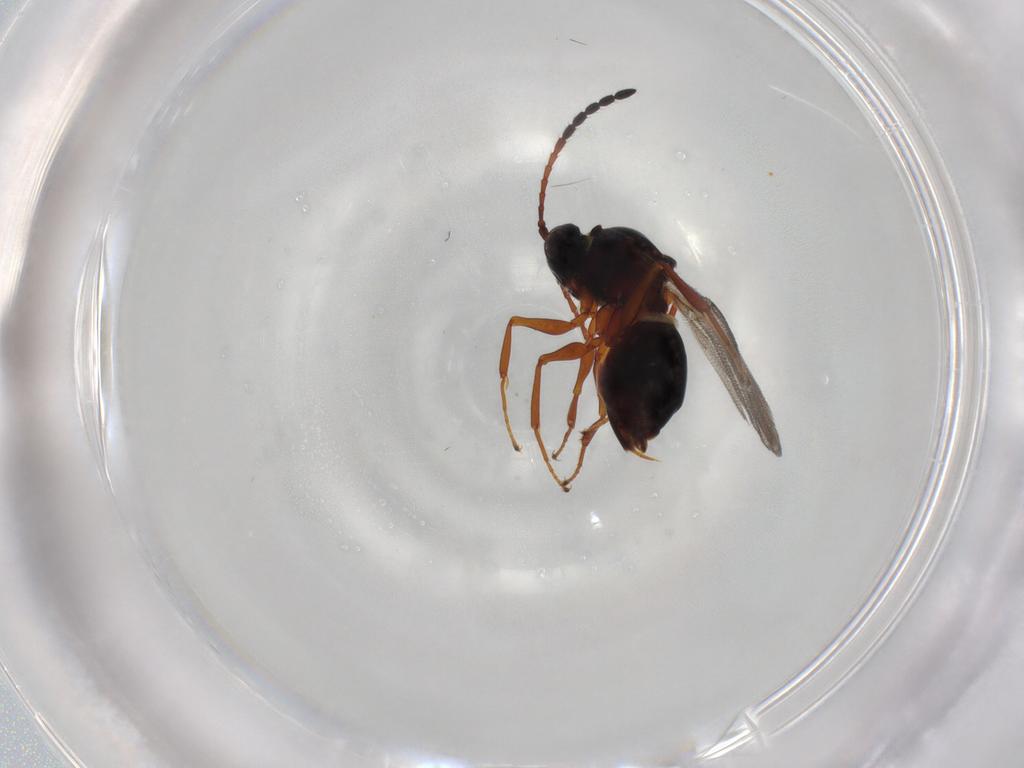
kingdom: Animalia
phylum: Arthropoda
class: Insecta
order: Hymenoptera
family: Figitidae
